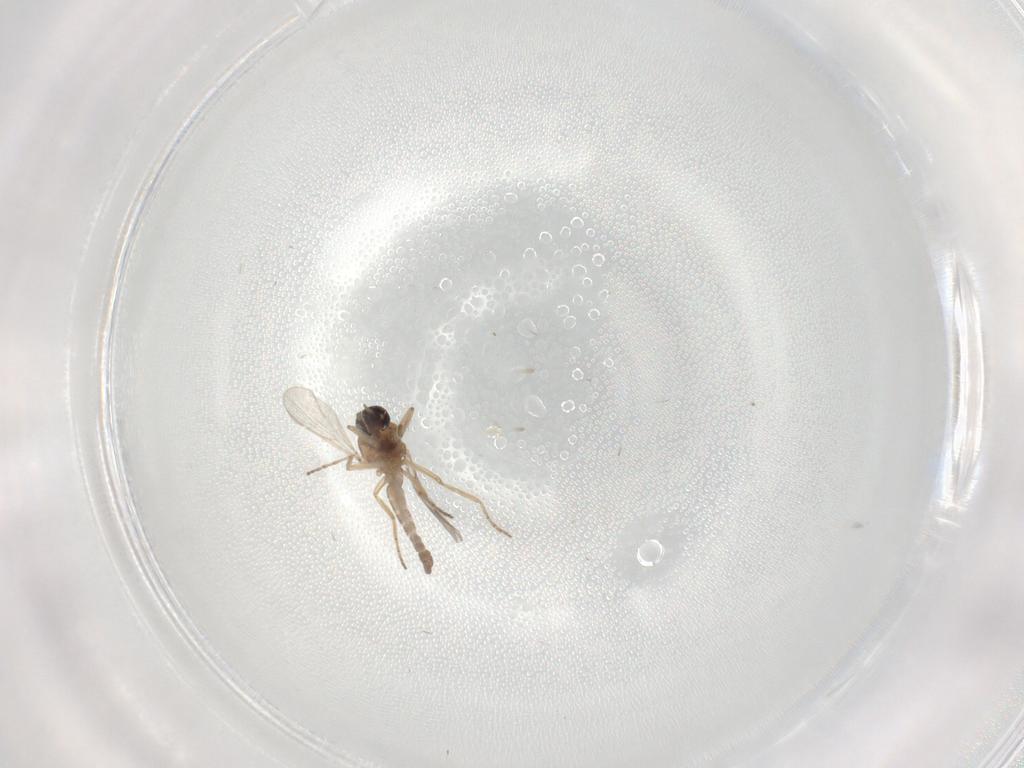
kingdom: Animalia
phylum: Arthropoda
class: Insecta
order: Diptera
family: Chironomidae
